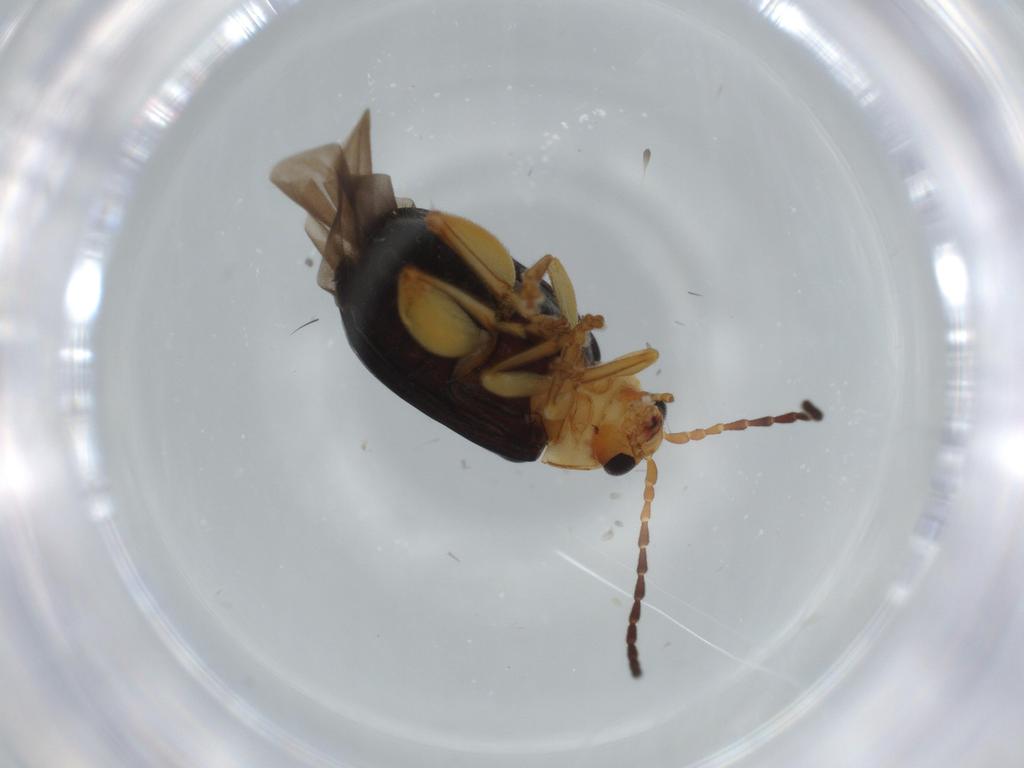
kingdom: Animalia
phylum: Arthropoda
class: Insecta
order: Coleoptera
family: Chrysomelidae
